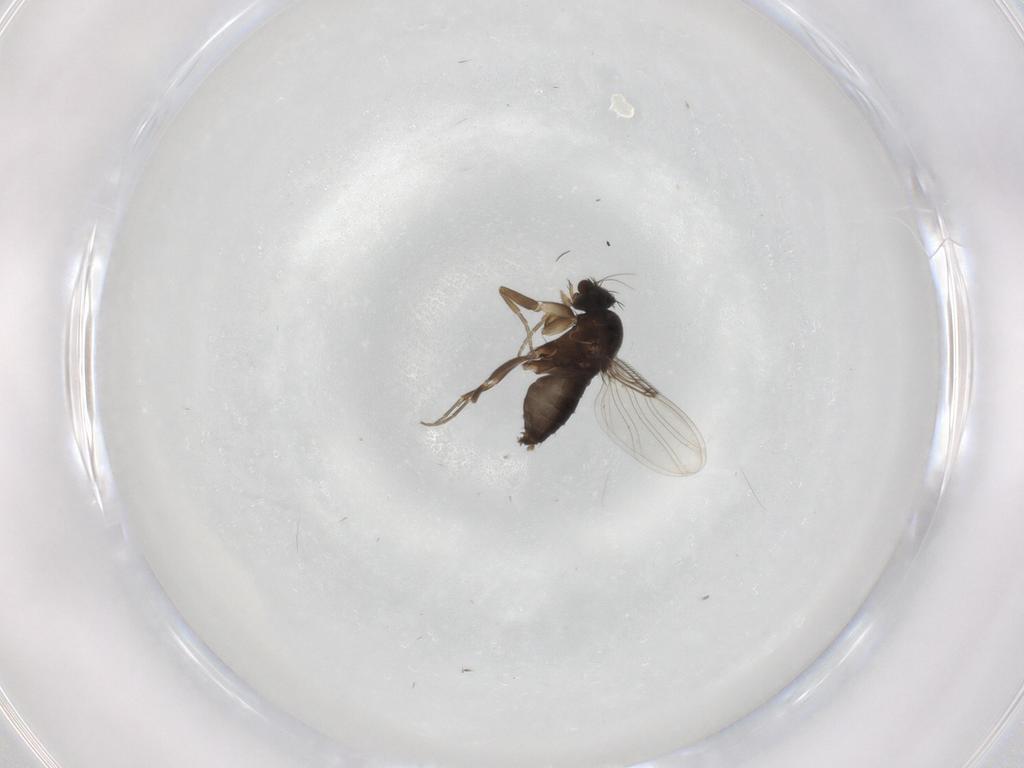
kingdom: Animalia
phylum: Arthropoda
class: Insecta
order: Diptera
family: Phoridae
